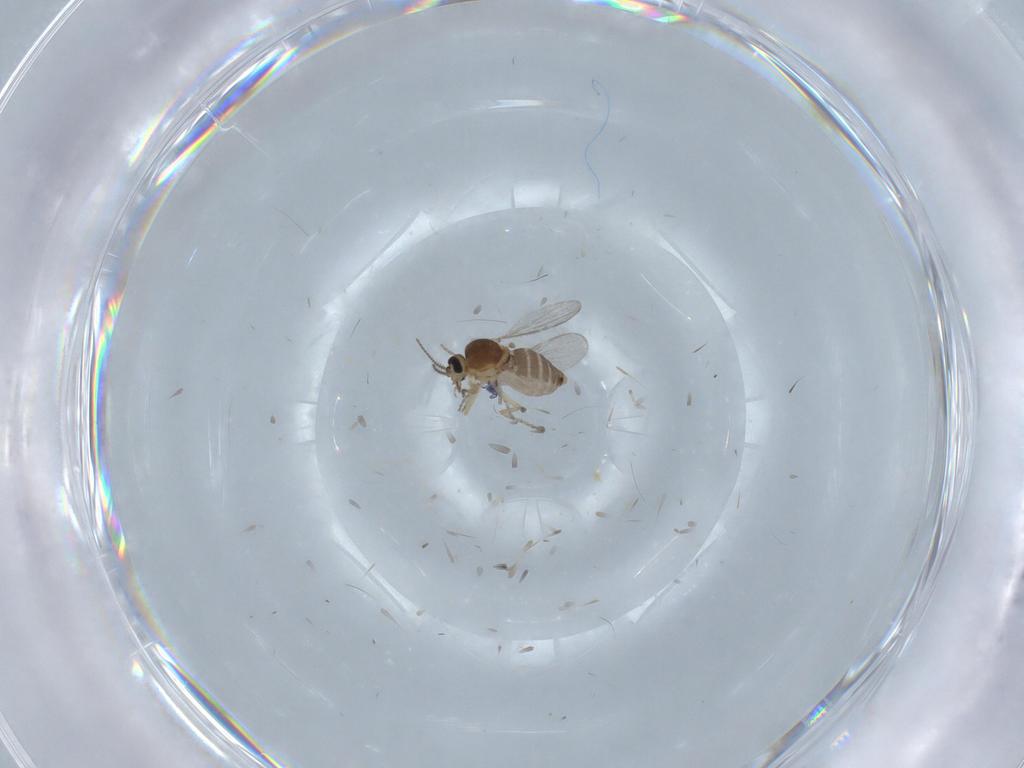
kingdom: Animalia
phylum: Arthropoda
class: Insecta
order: Diptera
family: Ceratopogonidae
